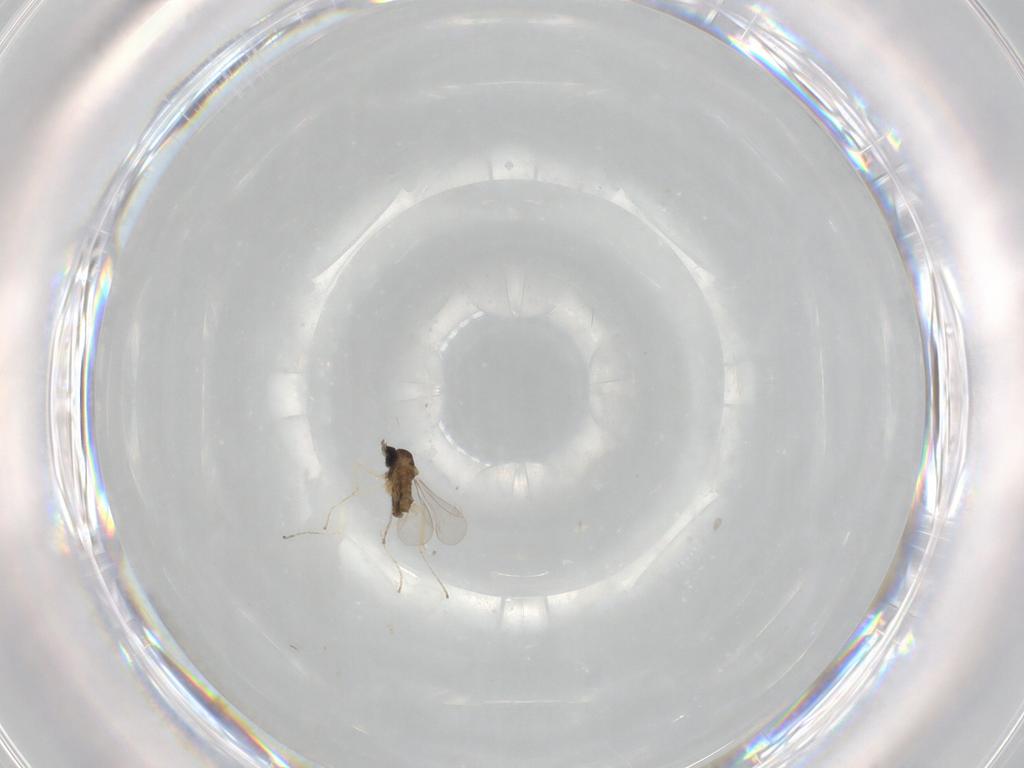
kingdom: Animalia
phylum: Arthropoda
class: Insecta
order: Diptera
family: Cecidomyiidae
